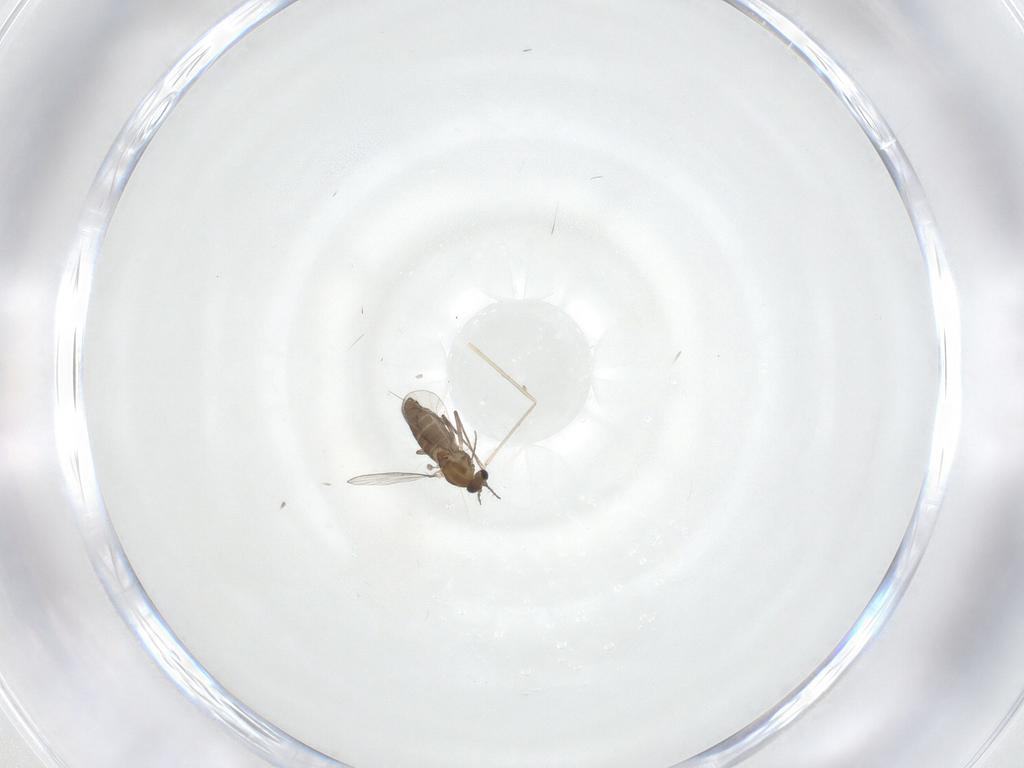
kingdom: Animalia
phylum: Arthropoda
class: Insecta
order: Diptera
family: Chironomidae
